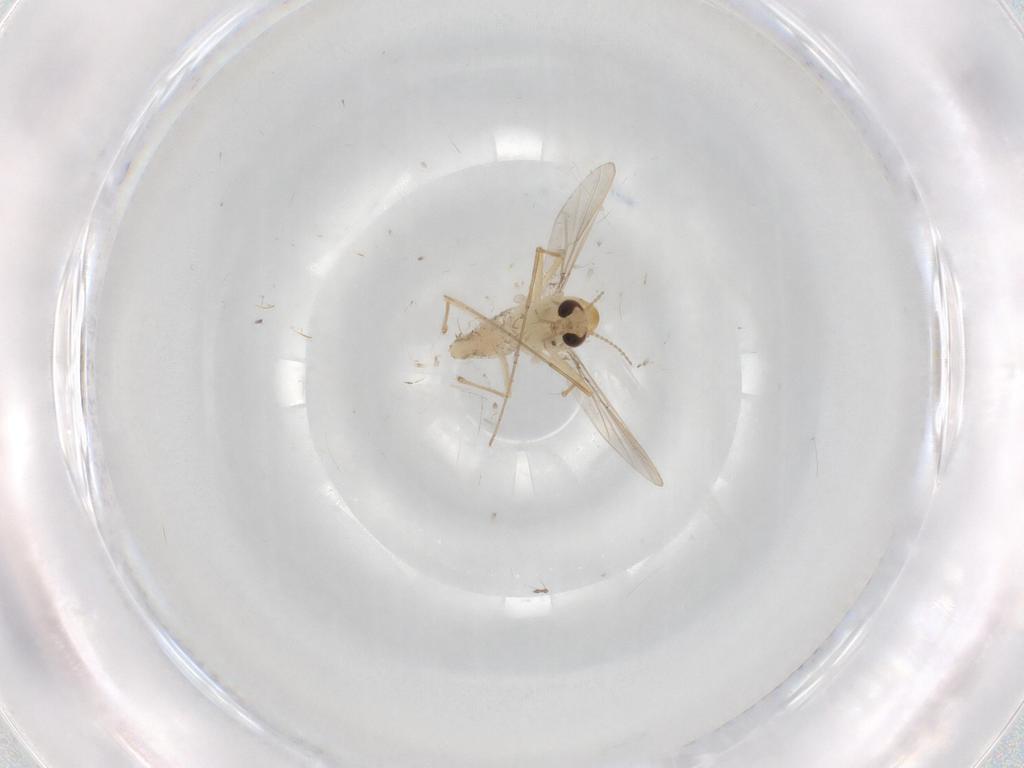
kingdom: Animalia
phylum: Arthropoda
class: Insecta
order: Diptera
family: Chironomidae
